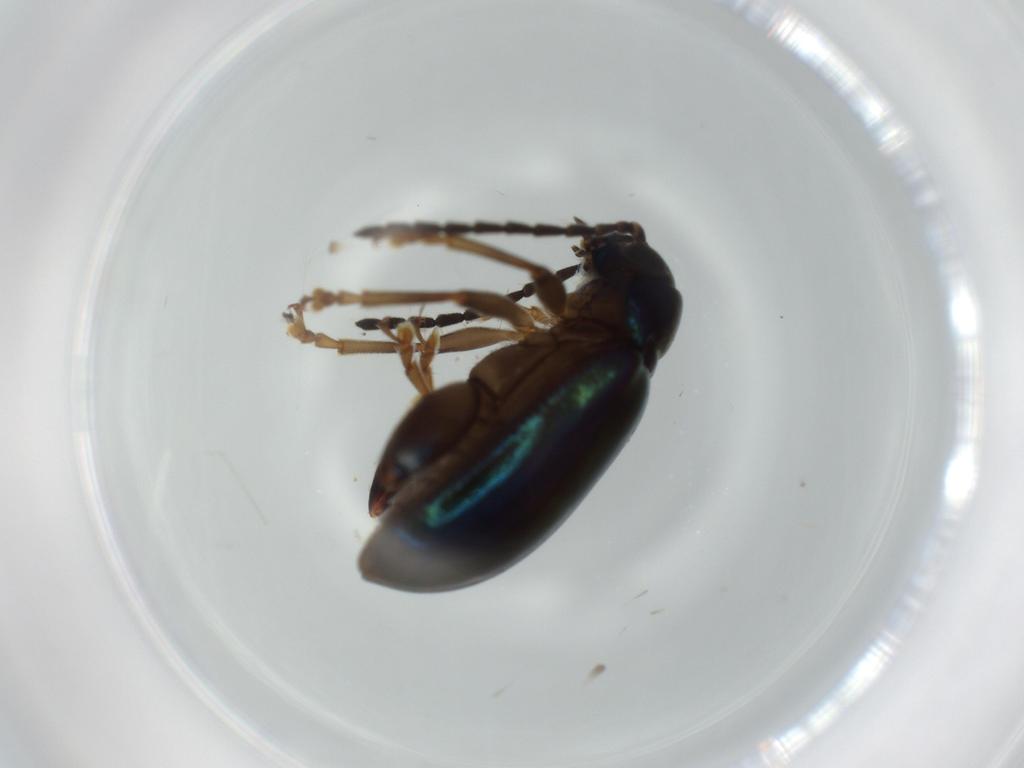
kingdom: Animalia
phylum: Arthropoda
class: Insecta
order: Coleoptera
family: Chrysomelidae
